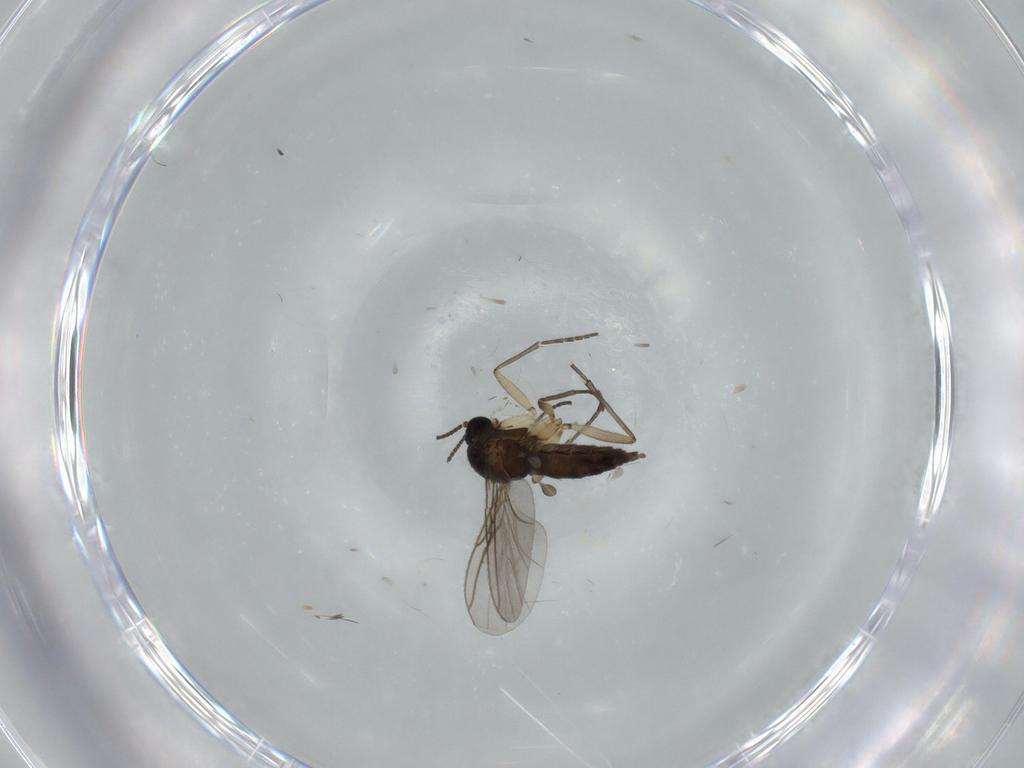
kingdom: Animalia
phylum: Arthropoda
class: Insecta
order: Diptera
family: Sciaridae
